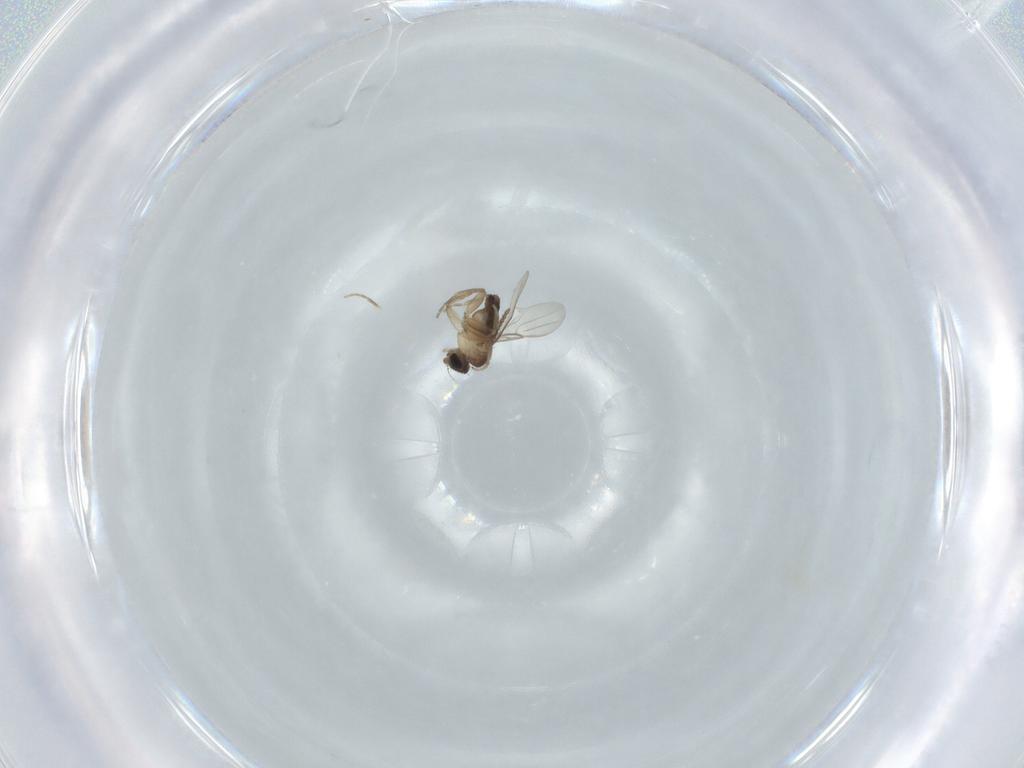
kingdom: Animalia
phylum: Arthropoda
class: Insecta
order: Diptera
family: Phoridae
